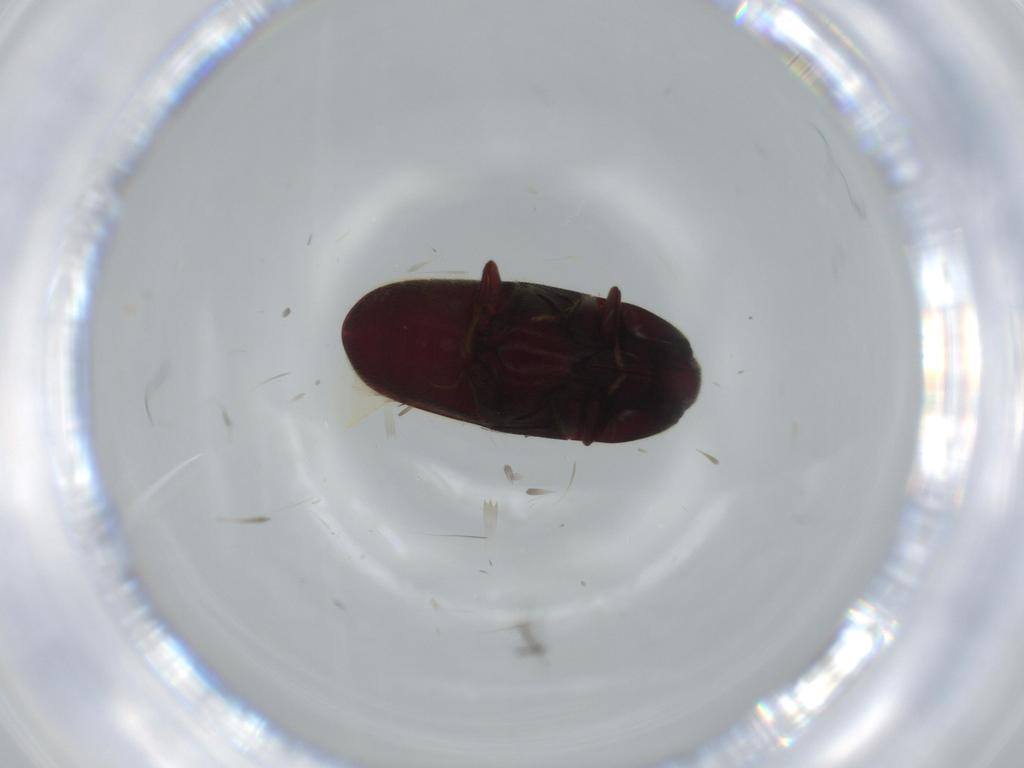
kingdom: Animalia
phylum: Arthropoda
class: Insecta
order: Coleoptera
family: Throscidae
